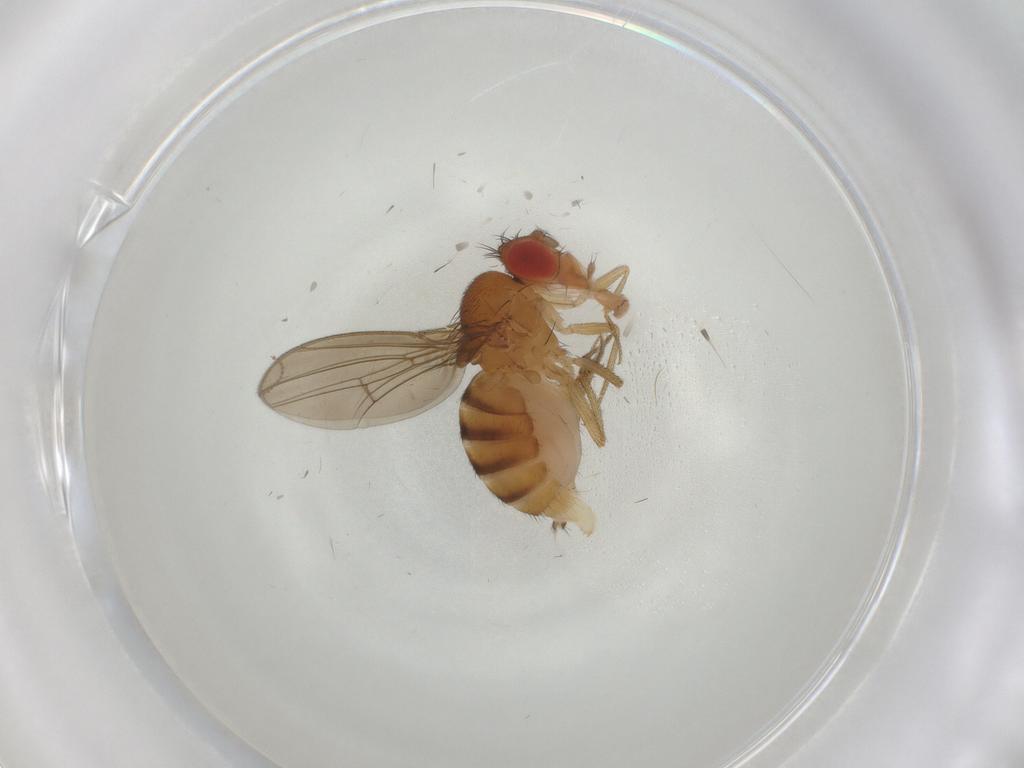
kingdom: Animalia
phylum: Arthropoda
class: Insecta
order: Diptera
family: Drosophilidae
